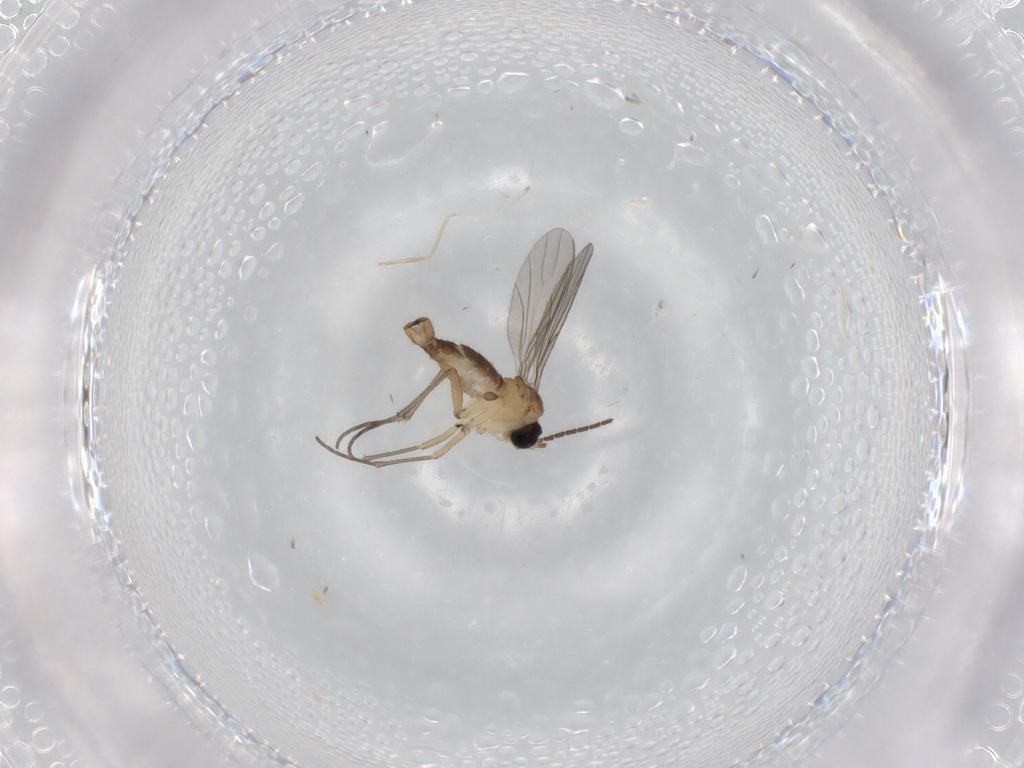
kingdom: Animalia
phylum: Arthropoda
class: Insecta
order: Diptera
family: Sciaridae
